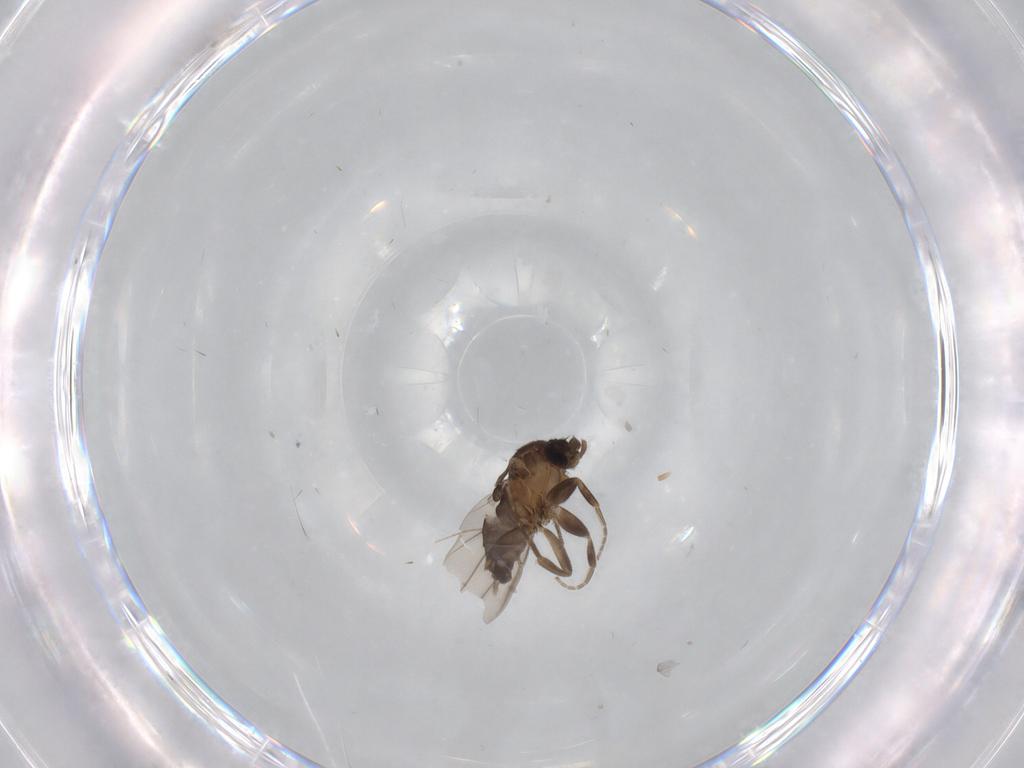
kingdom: Animalia
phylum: Arthropoda
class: Insecta
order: Diptera
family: Chironomidae
